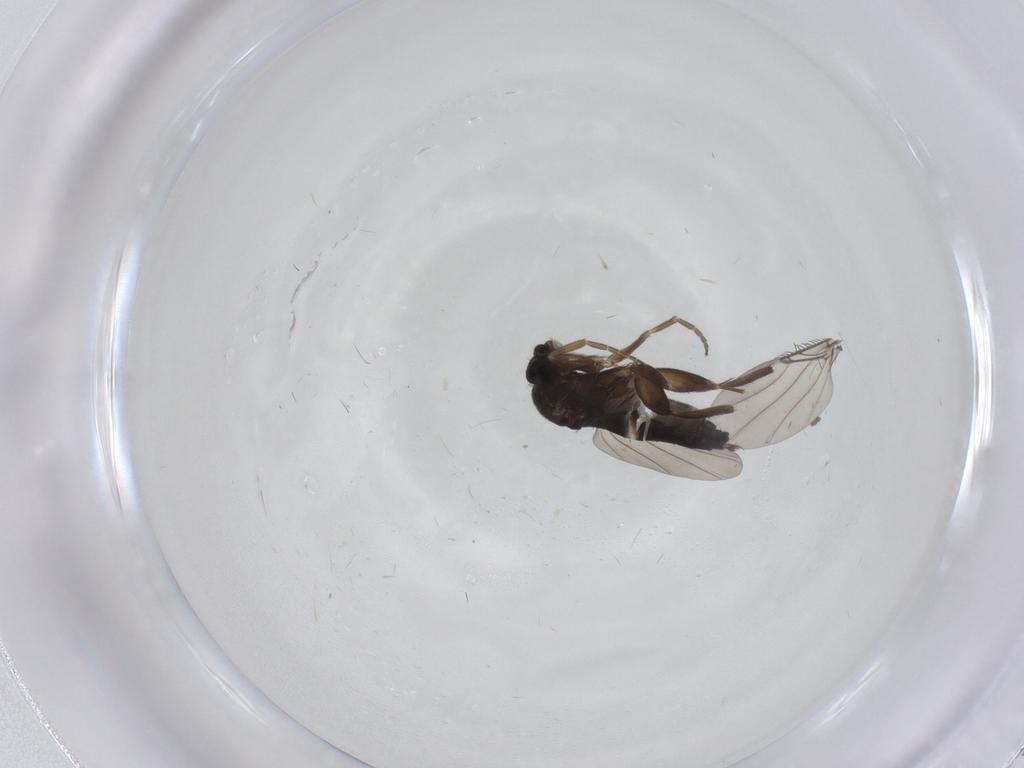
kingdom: Animalia
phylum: Arthropoda
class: Insecta
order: Diptera
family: Phoridae
